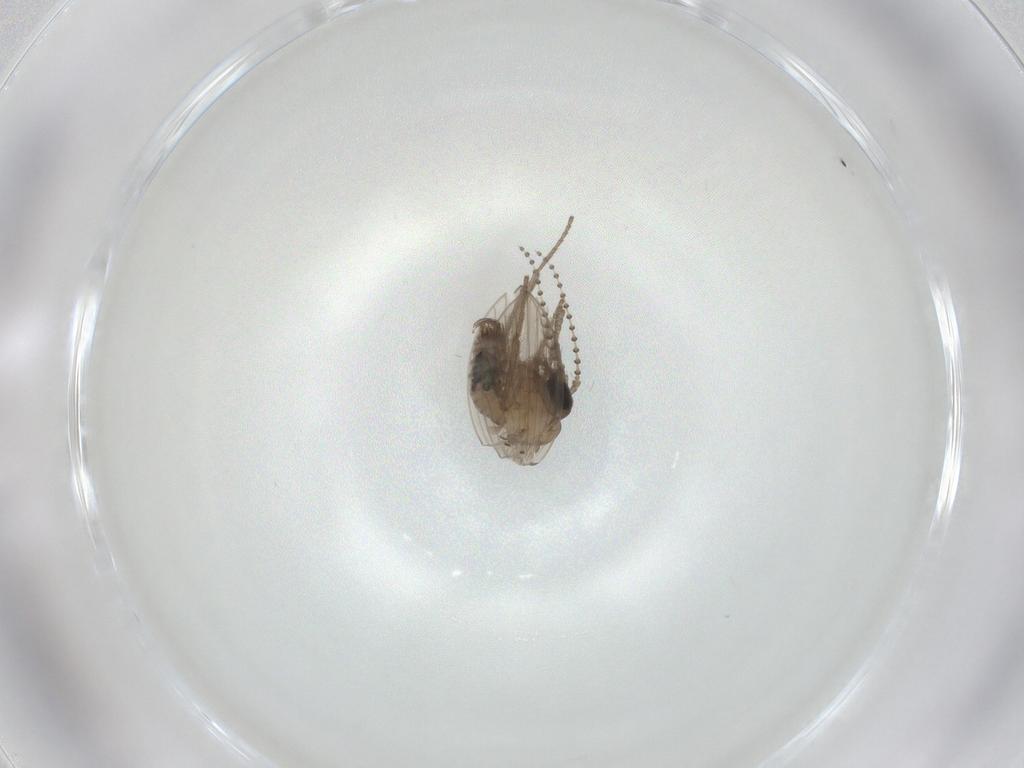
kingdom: Animalia
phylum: Arthropoda
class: Insecta
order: Diptera
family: Psychodidae
